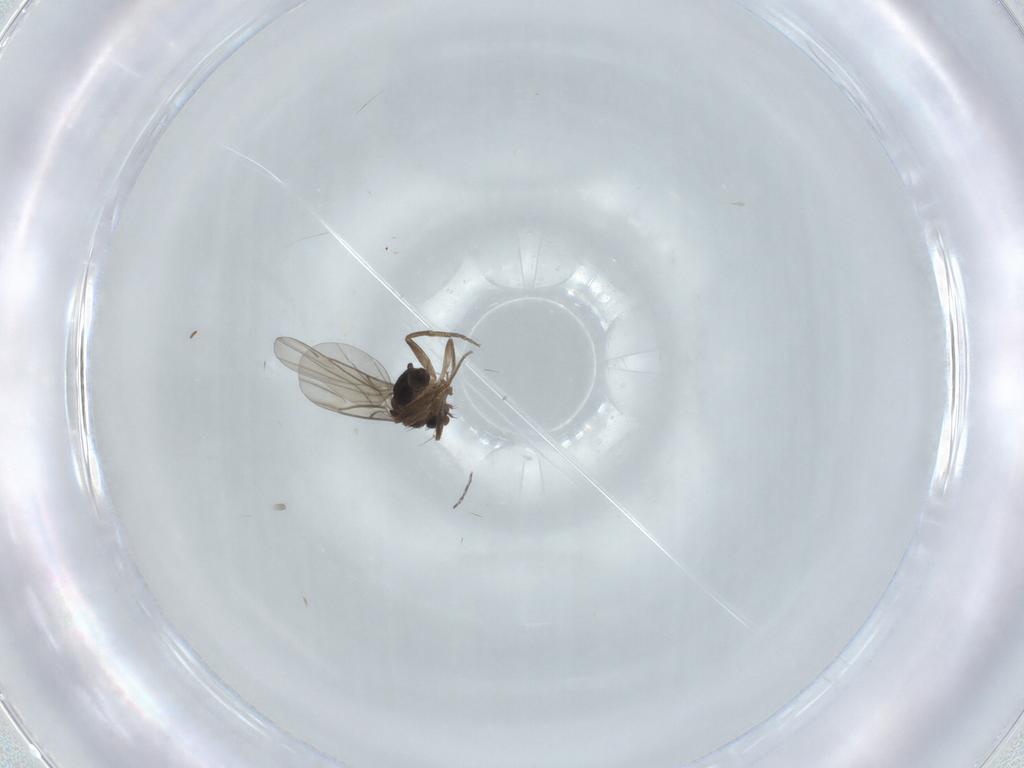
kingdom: Animalia
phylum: Arthropoda
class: Insecta
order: Diptera
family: Phoridae
